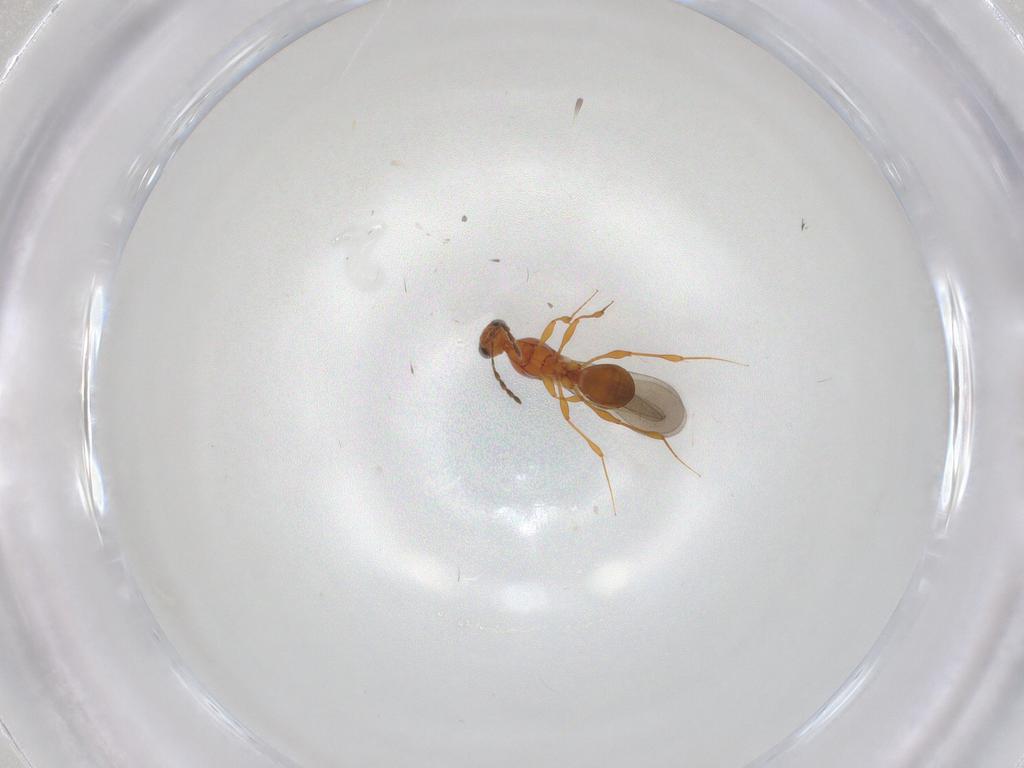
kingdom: Animalia
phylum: Arthropoda
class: Insecta
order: Hymenoptera
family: Platygastridae
